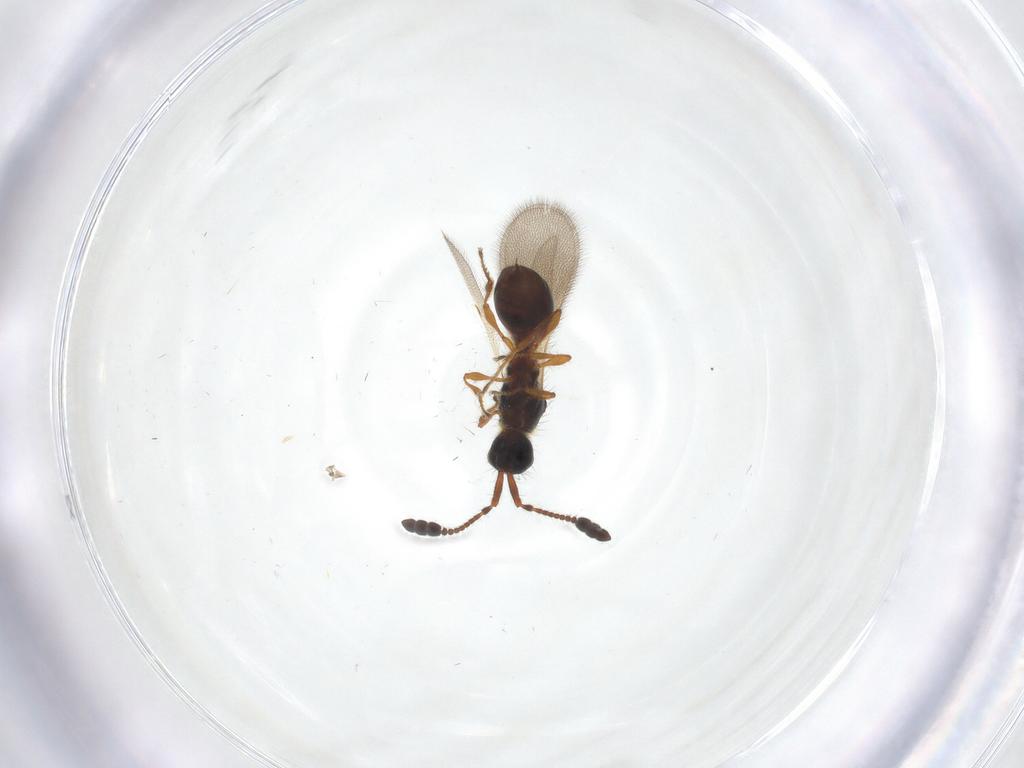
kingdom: Animalia
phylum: Arthropoda
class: Insecta
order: Hymenoptera
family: Diapriidae
